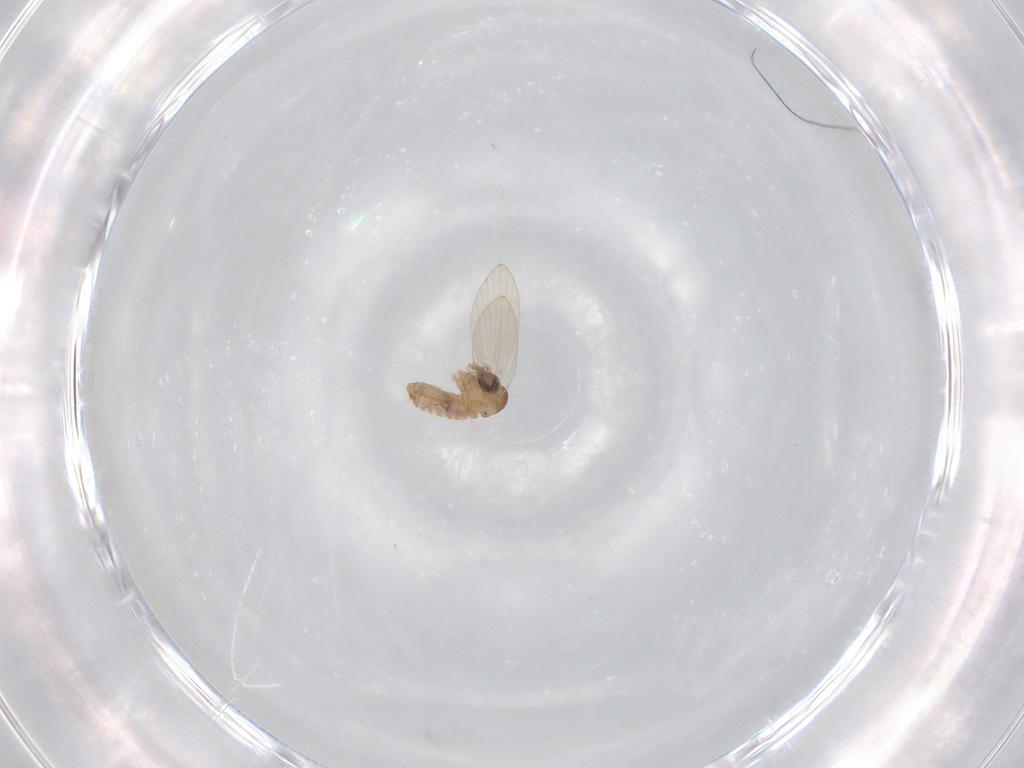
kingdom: Animalia
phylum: Arthropoda
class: Insecta
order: Diptera
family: Psychodidae
